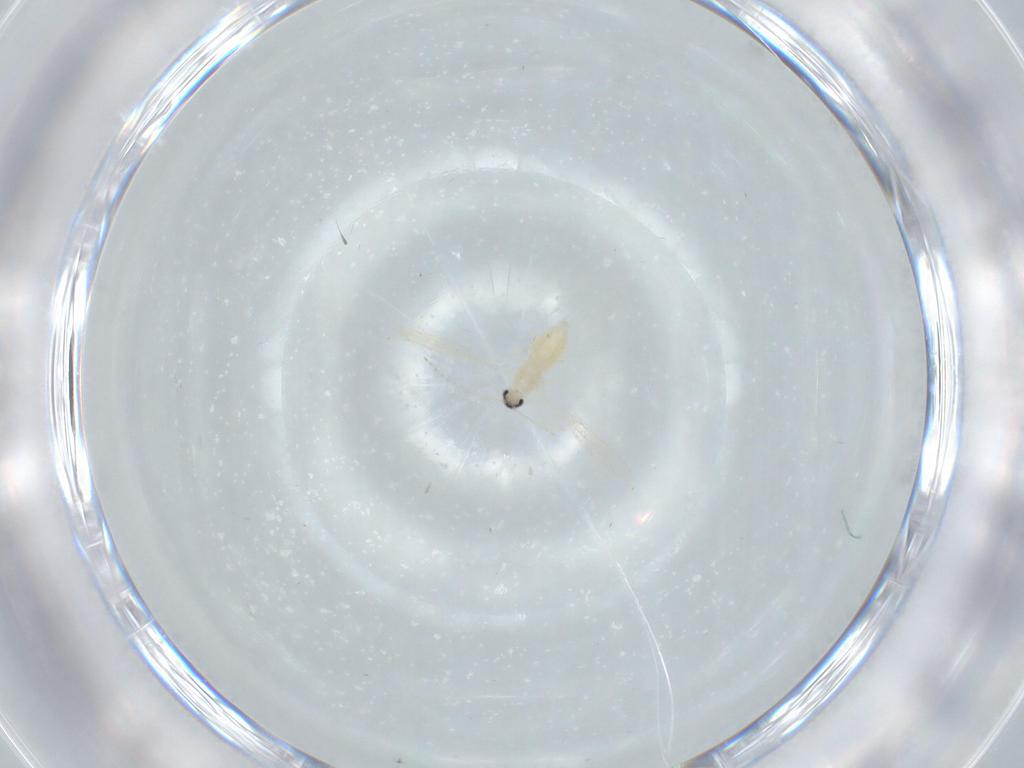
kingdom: Animalia
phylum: Arthropoda
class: Insecta
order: Diptera
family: Cecidomyiidae
